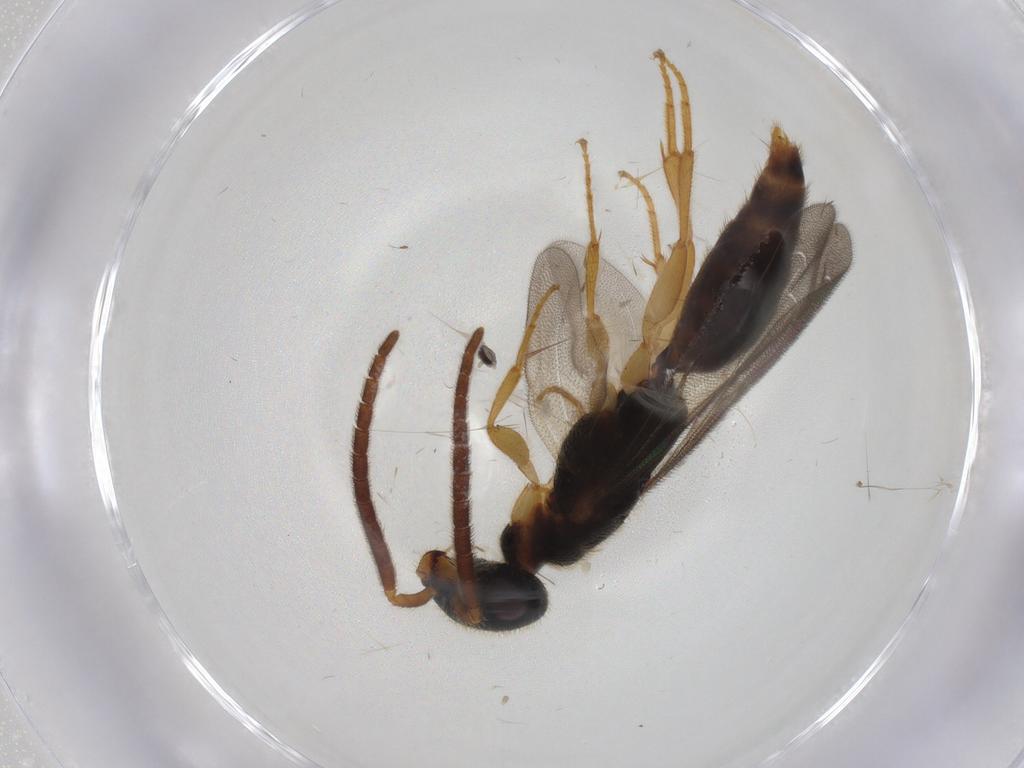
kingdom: Animalia
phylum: Arthropoda
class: Insecta
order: Hymenoptera
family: Bethylidae
